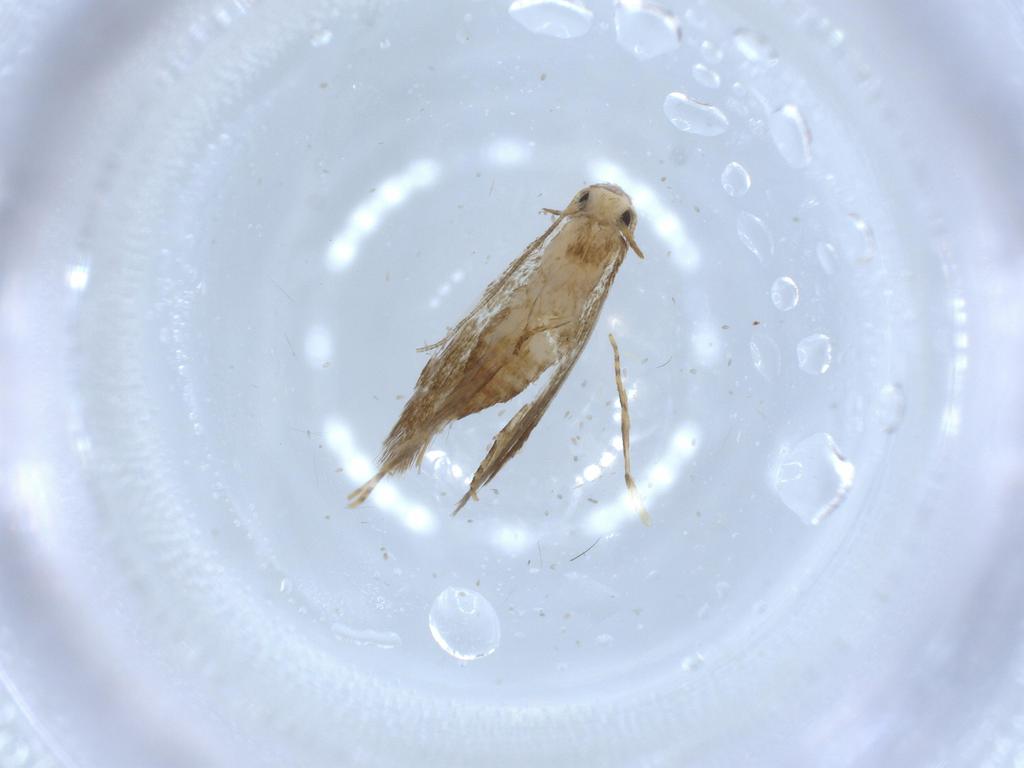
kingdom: Animalia
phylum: Arthropoda
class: Insecta
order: Lepidoptera
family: Tineidae
